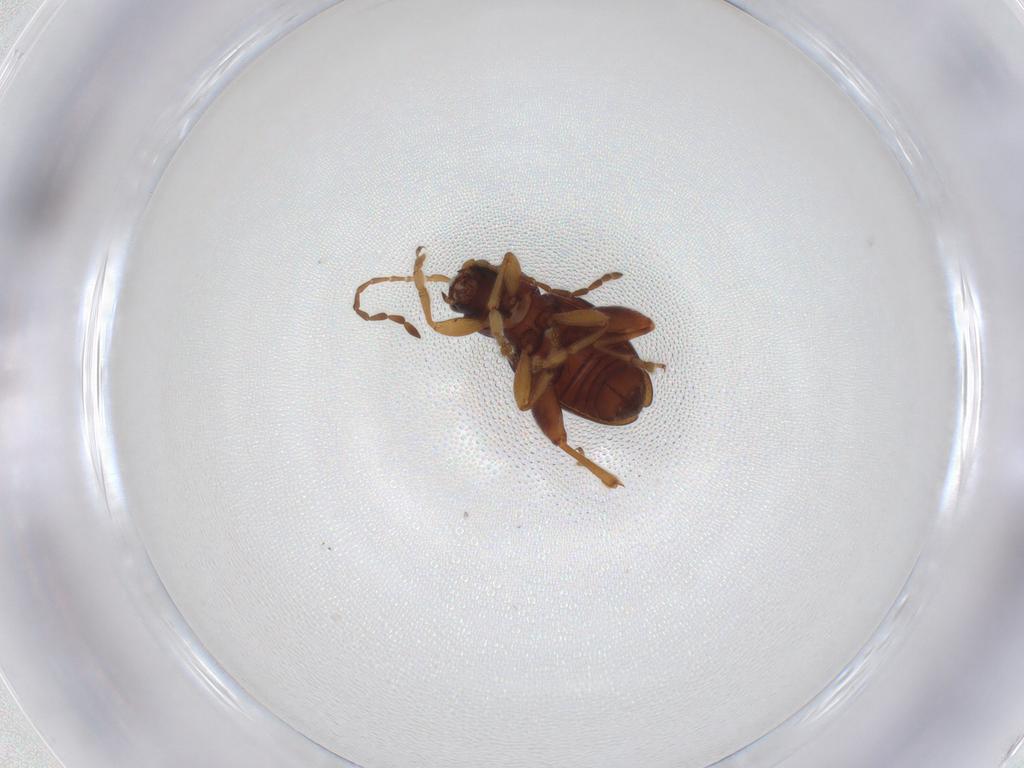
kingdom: Animalia
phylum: Arthropoda
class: Insecta
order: Coleoptera
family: Chrysomelidae
